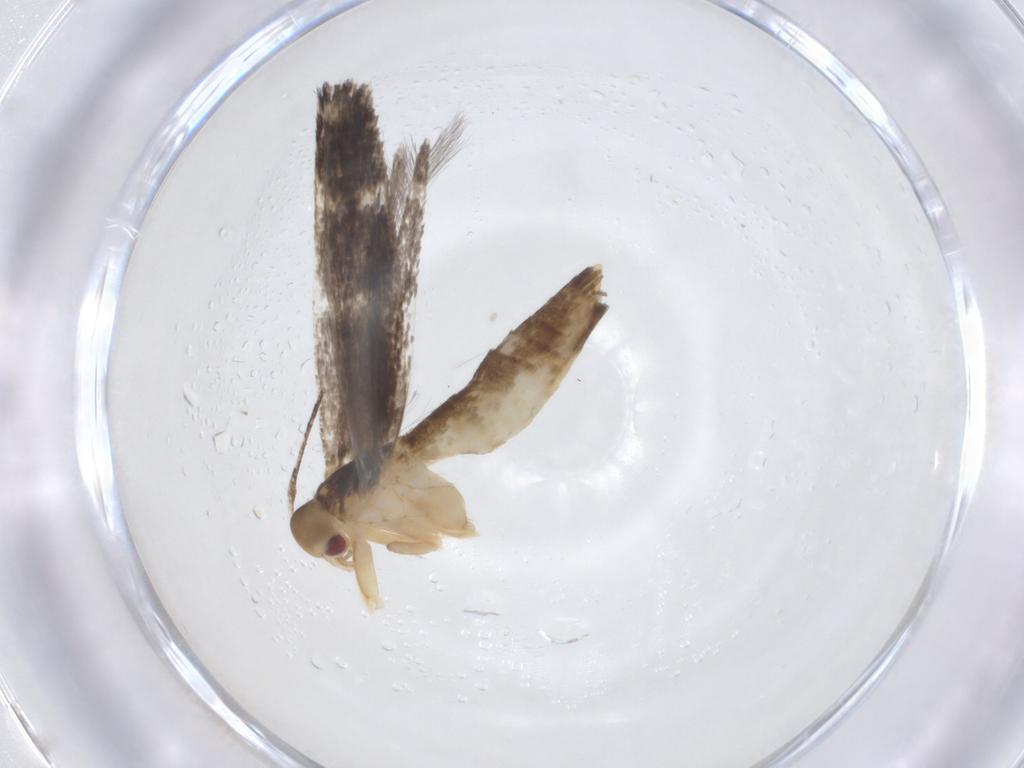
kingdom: Animalia
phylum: Arthropoda
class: Insecta
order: Lepidoptera
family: Cosmopterigidae
